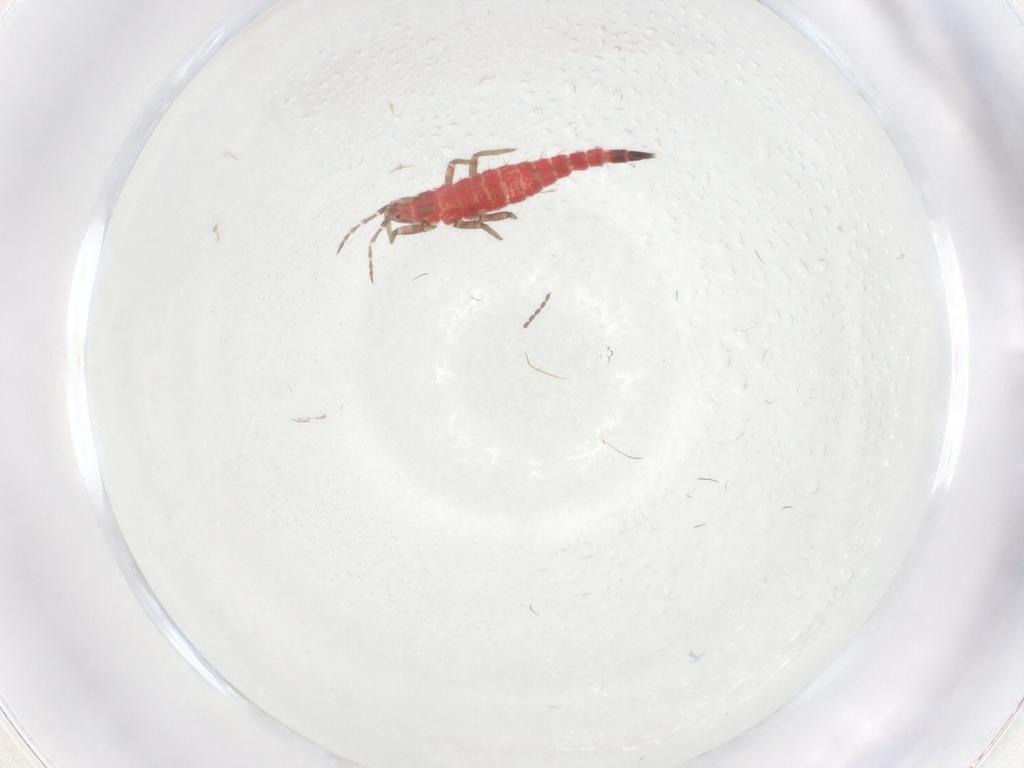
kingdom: Animalia
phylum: Arthropoda
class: Insecta
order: Thysanoptera
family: Phlaeothripidae
